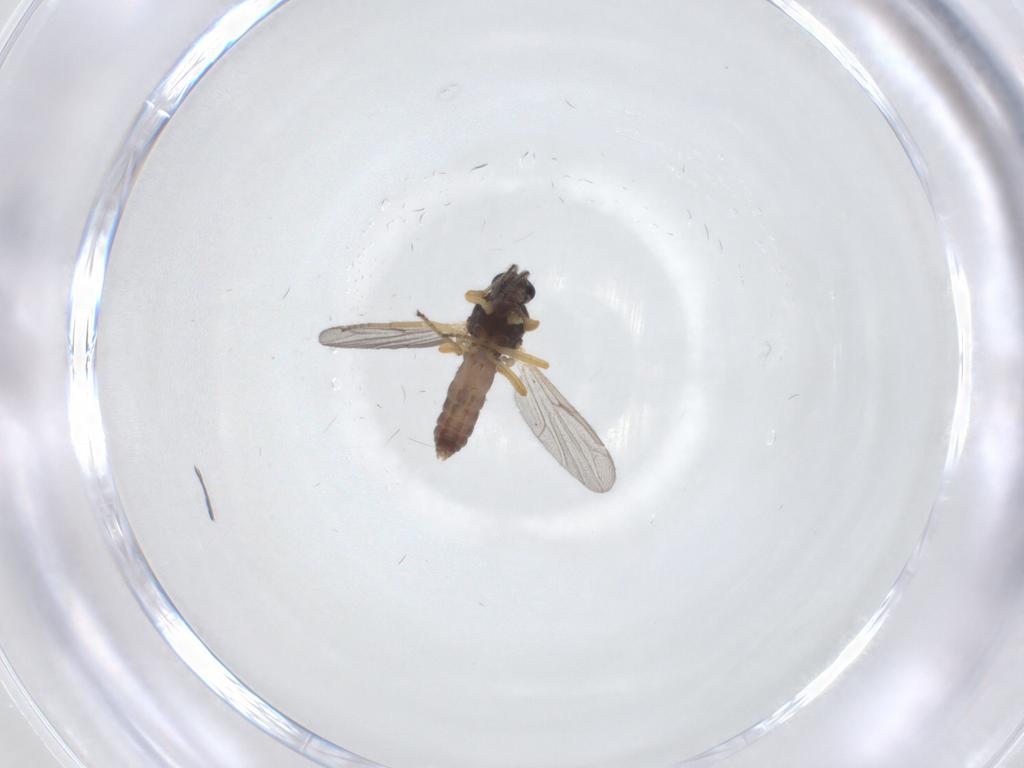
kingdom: Animalia
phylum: Arthropoda
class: Insecta
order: Diptera
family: Ceratopogonidae
